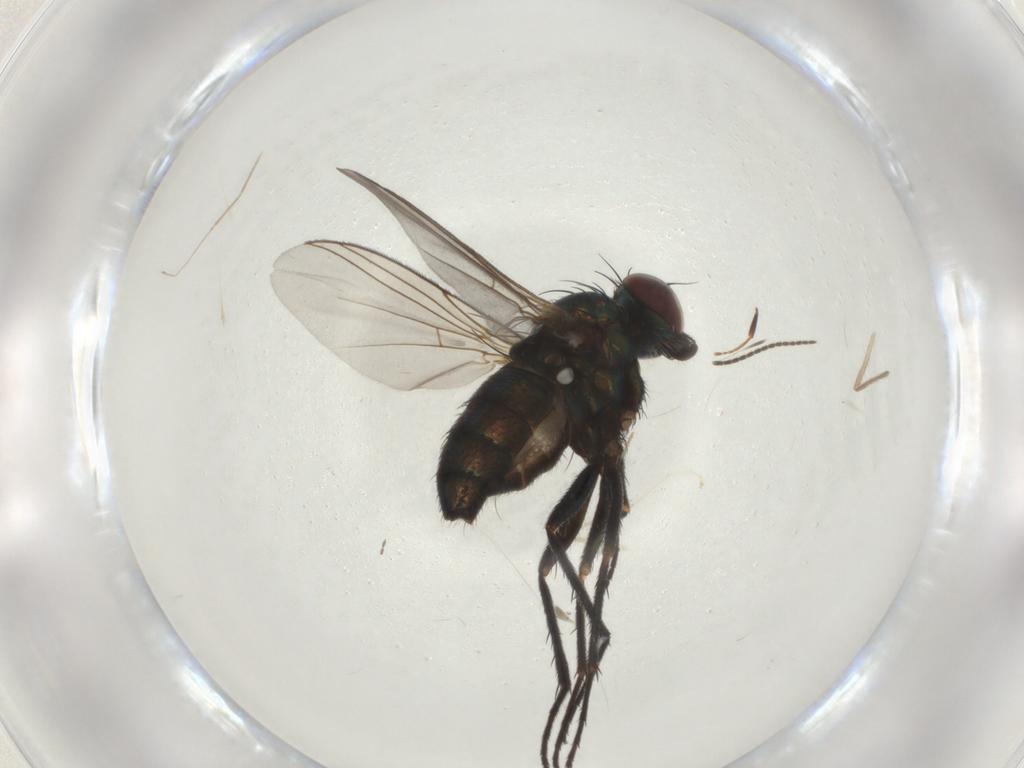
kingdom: Animalia
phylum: Arthropoda
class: Insecta
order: Diptera
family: Dolichopodidae
